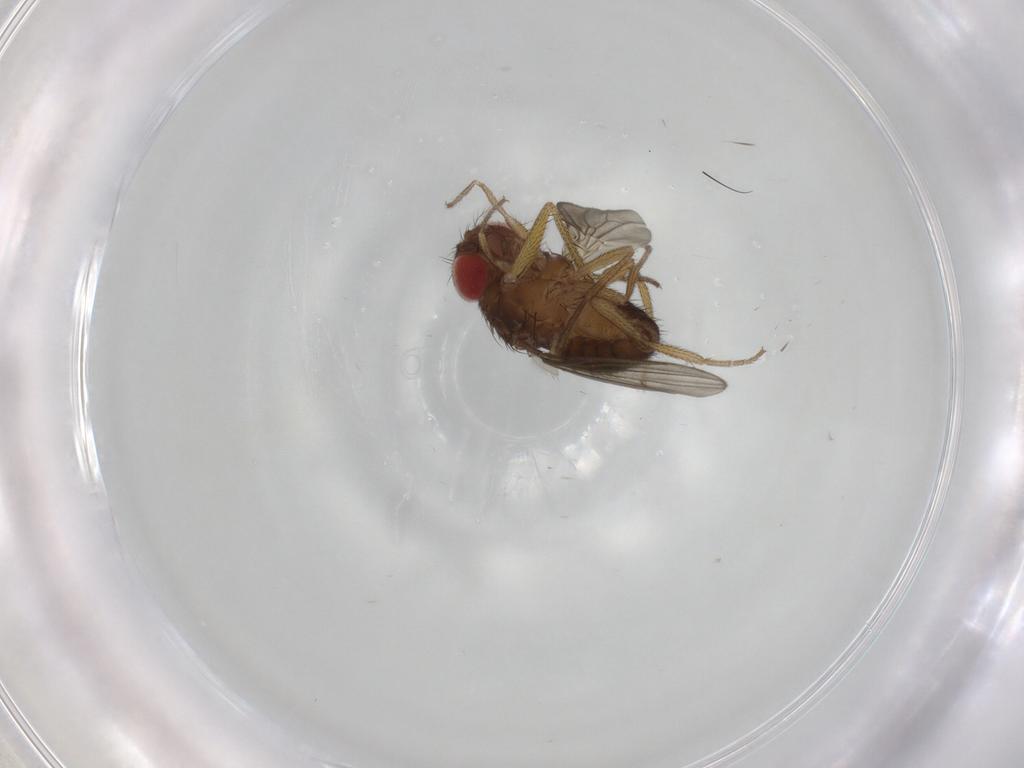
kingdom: Animalia
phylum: Arthropoda
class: Insecta
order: Diptera
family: Drosophilidae
